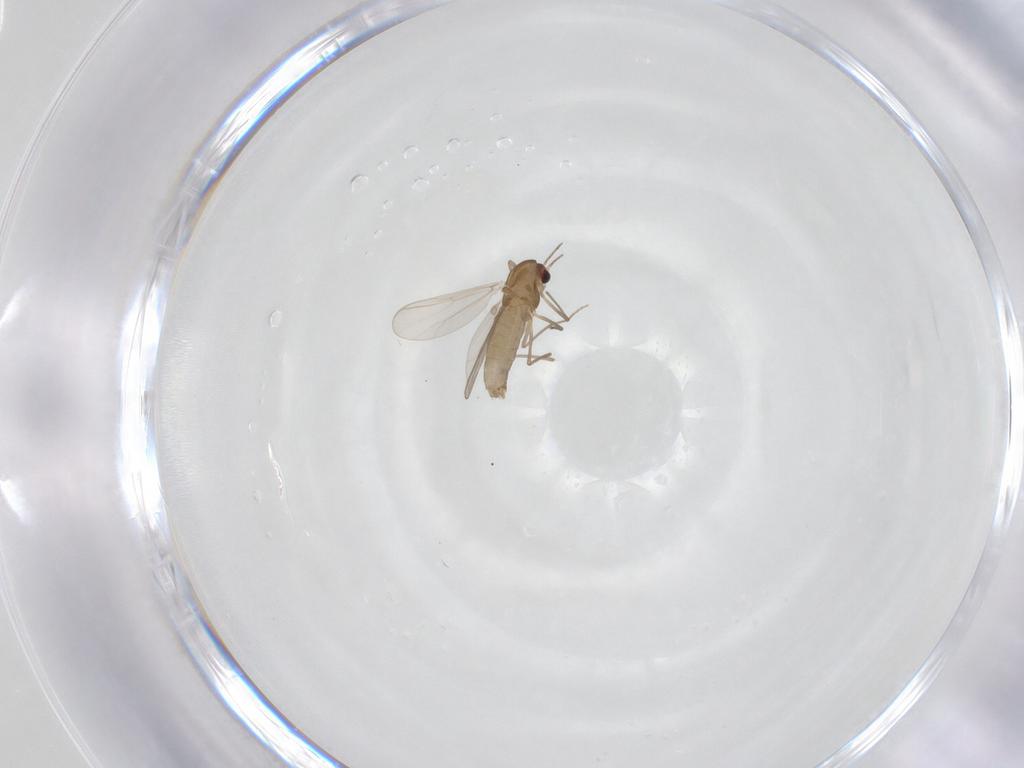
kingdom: Animalia
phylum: Arthropoda
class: Insecta
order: Diptera
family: Chironomidae
